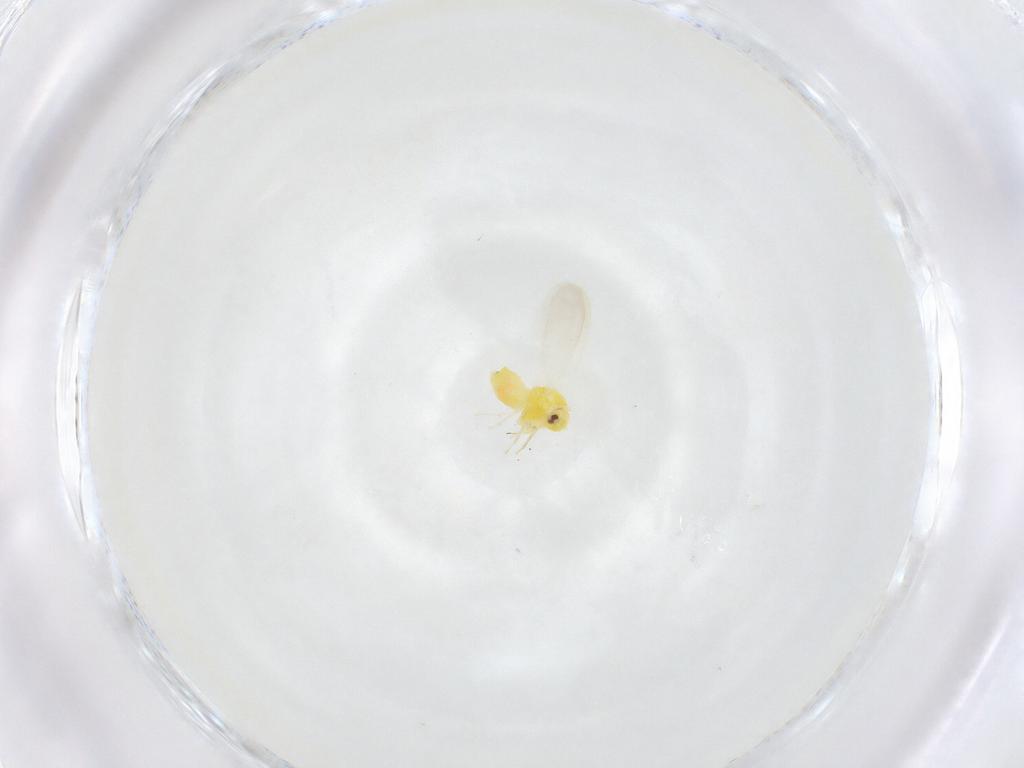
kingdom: Animalia
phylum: Arthropoda
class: Insecta
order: Hemiptera
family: Aleyrodidae
